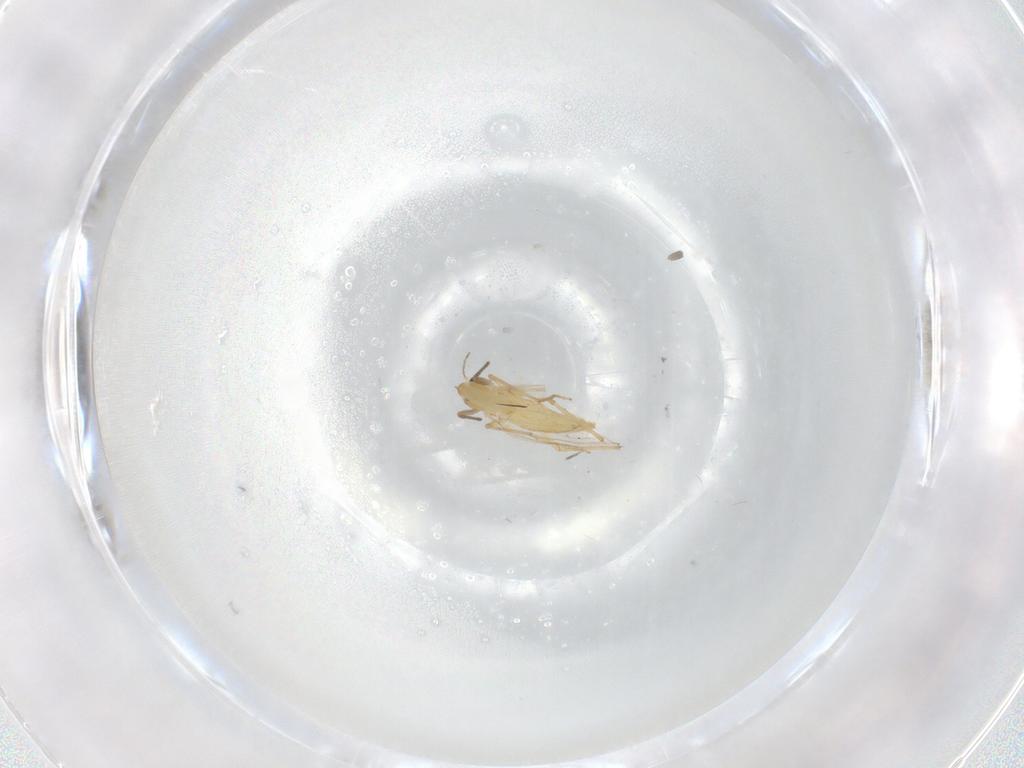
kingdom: Animalia
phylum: Arthropoda
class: Insecta
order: Diptera
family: Chironomidae
